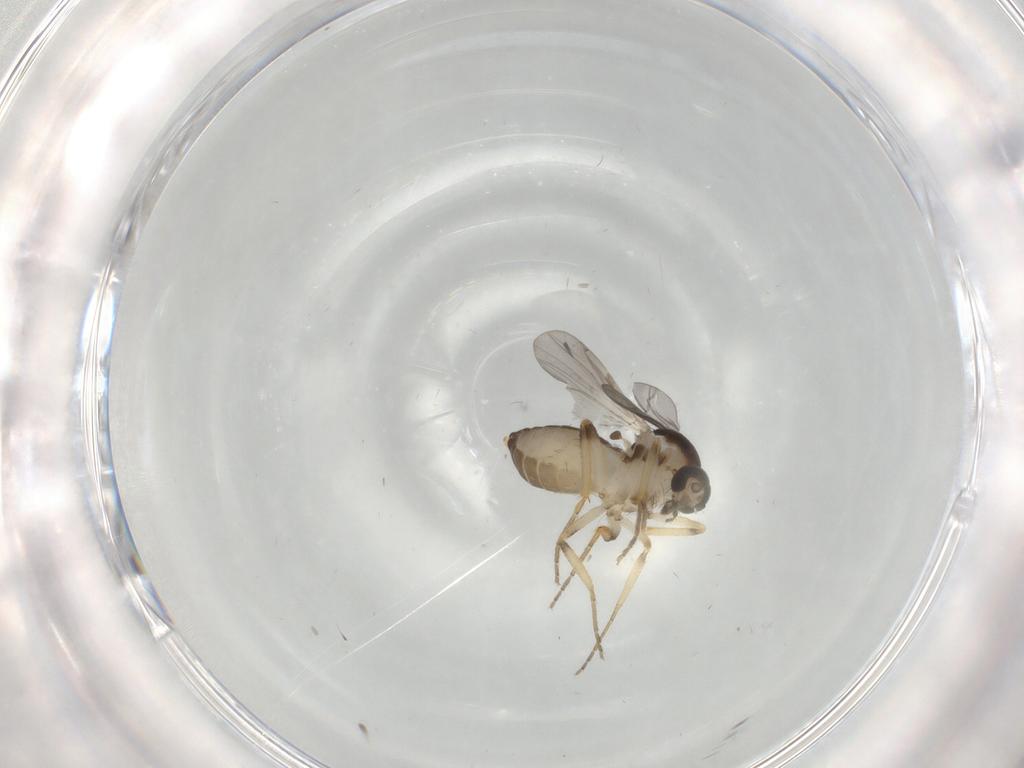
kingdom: Animalia
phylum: Arthropoda
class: Insecta
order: Diptera
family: Ceratopogonidae
